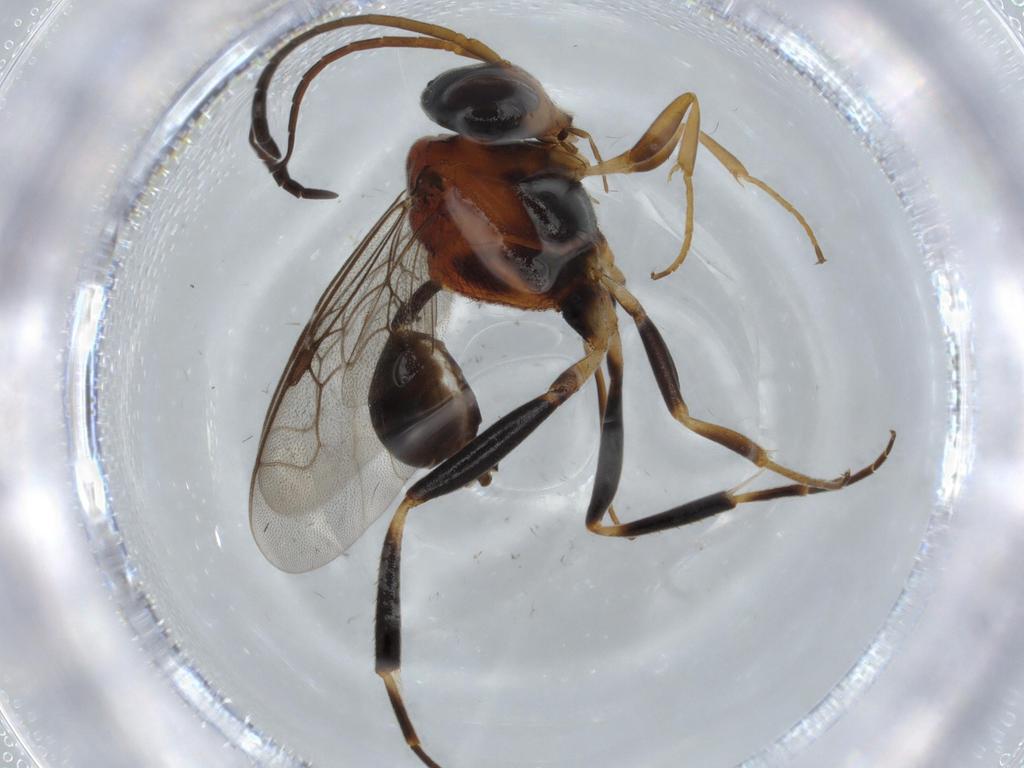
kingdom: Animalia
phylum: Arthropoda
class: Insecta
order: Hymenoptera
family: Evaniidae
